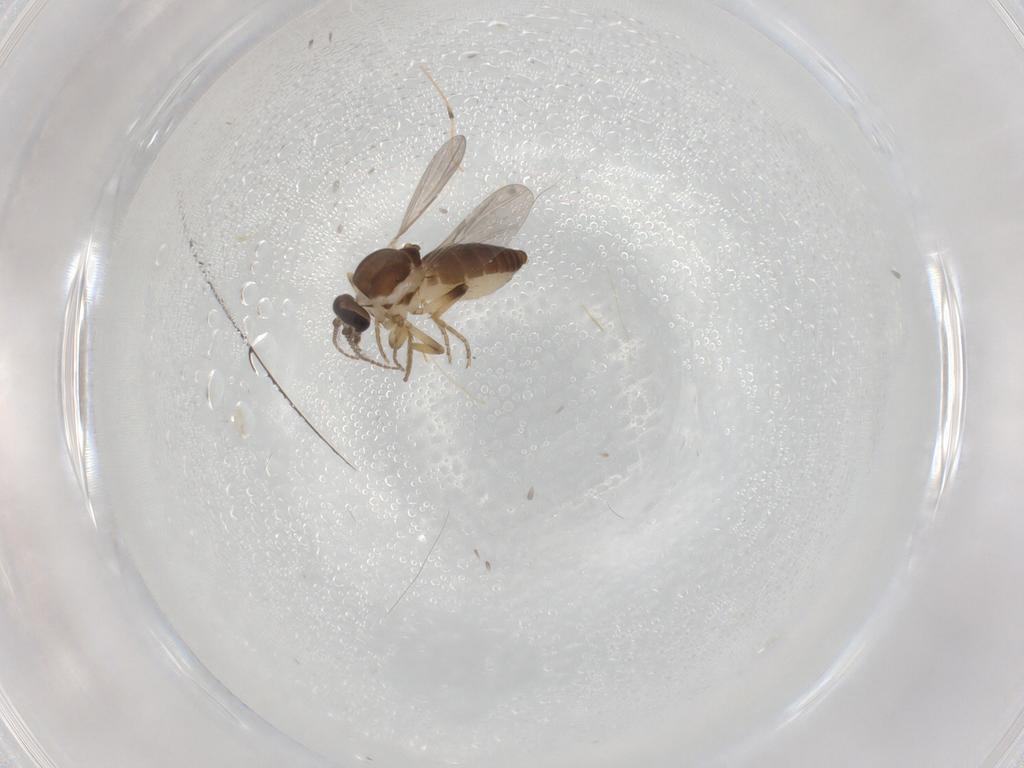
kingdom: Animalia
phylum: Arthropoda
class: Insecta
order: Diptera
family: Ceratopogonidae
